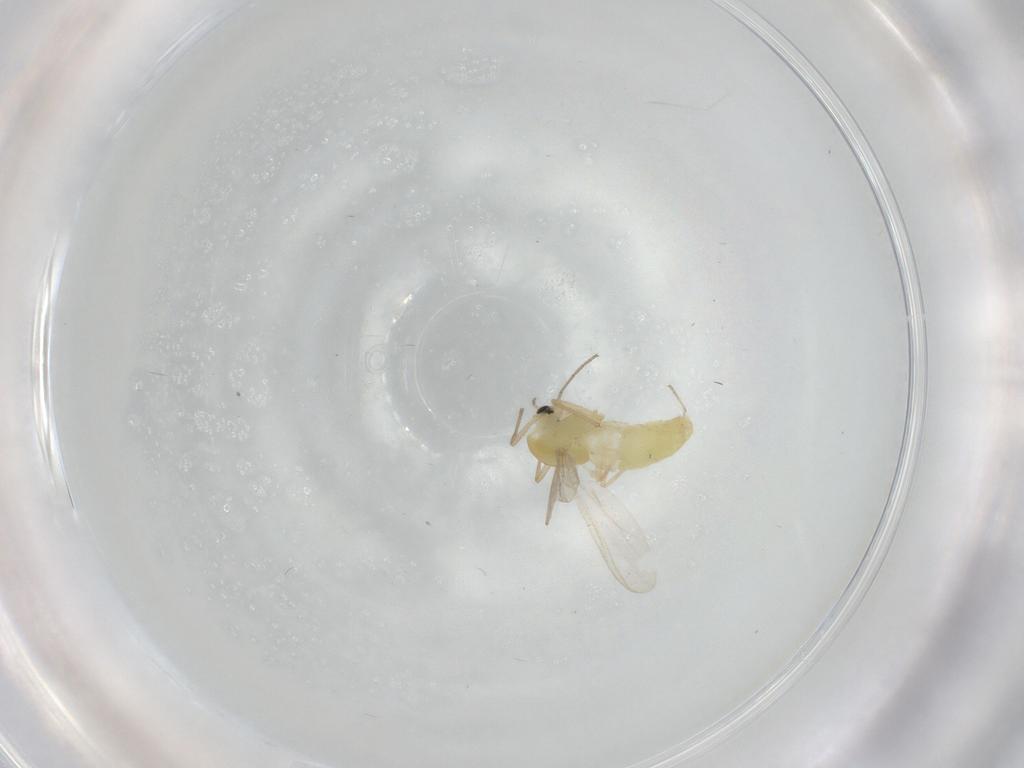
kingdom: Animalia
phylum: Arthropoda
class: Insecta
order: Diptera
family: Chironomidae
